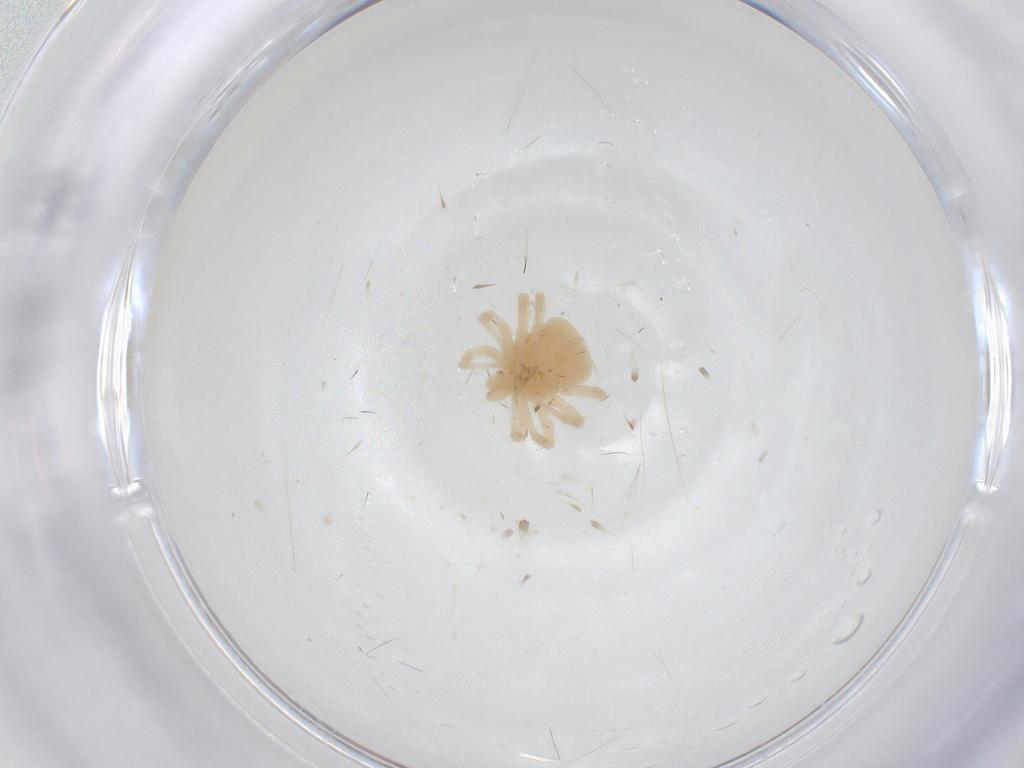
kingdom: Animalia
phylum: Arthropoda
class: Arachnida
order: Trombidiformes
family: Anystidae
